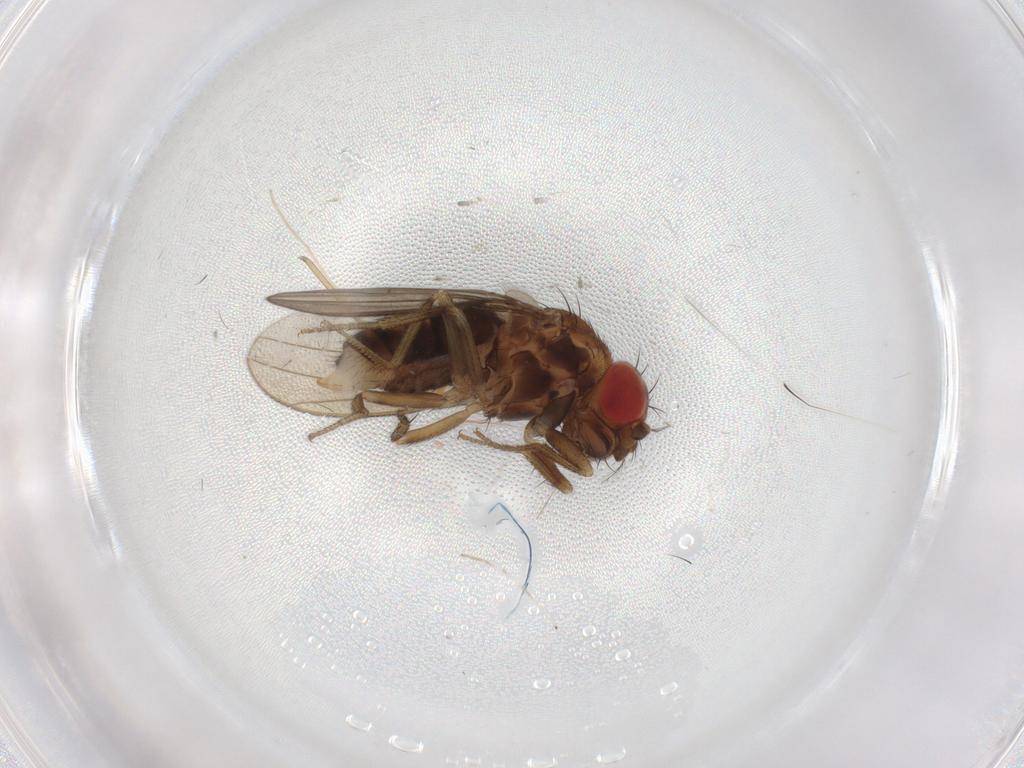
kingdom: Animalia
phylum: Arthropoda
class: Insecta
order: Diptera
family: Drosophilidae
